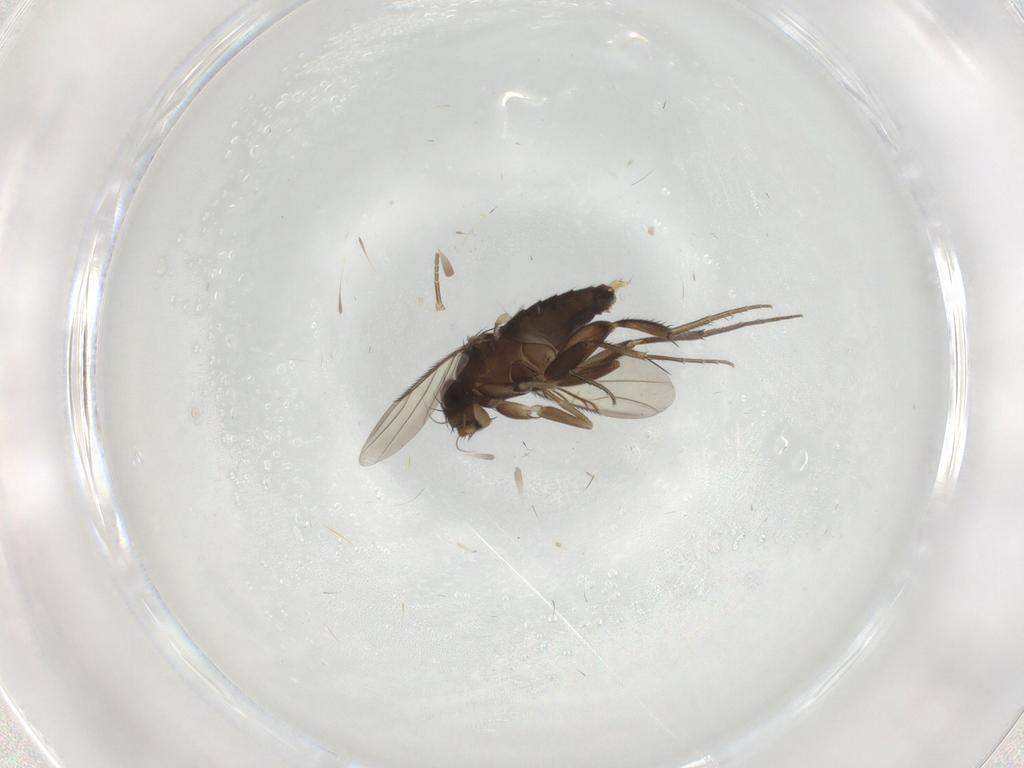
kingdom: Animalia
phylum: Arthropoda
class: Insecta
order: Diptera
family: Phoridae
